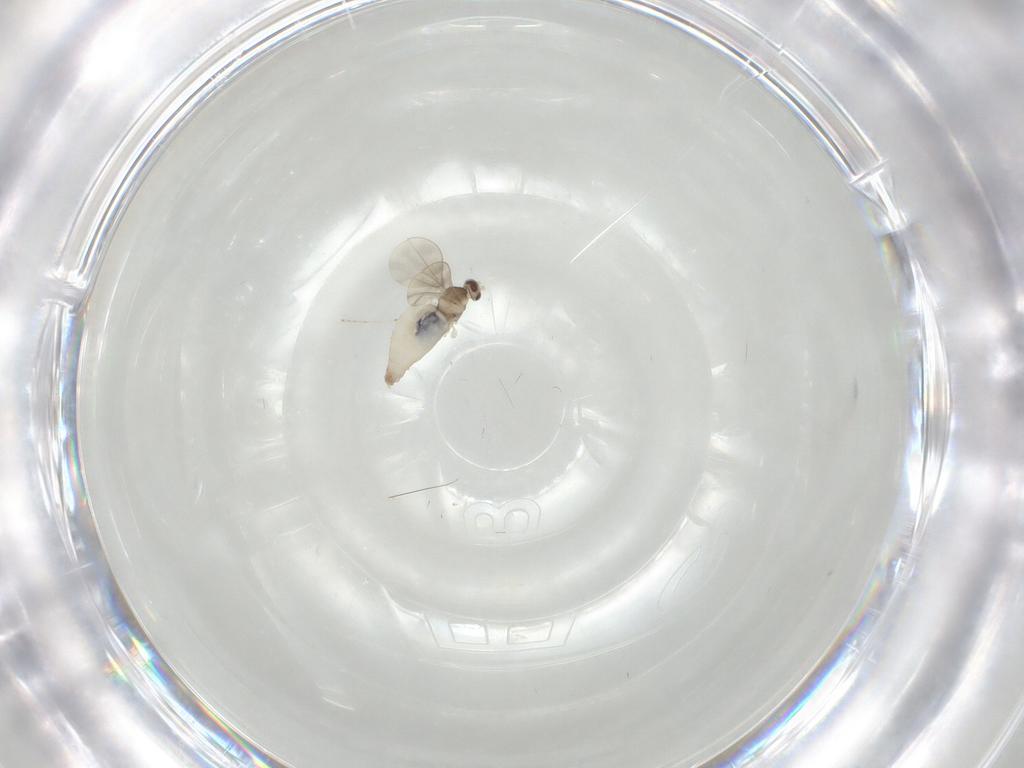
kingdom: Animalia
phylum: Arthropoda
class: Insecta
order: Diptera
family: Cecidomyiidae
